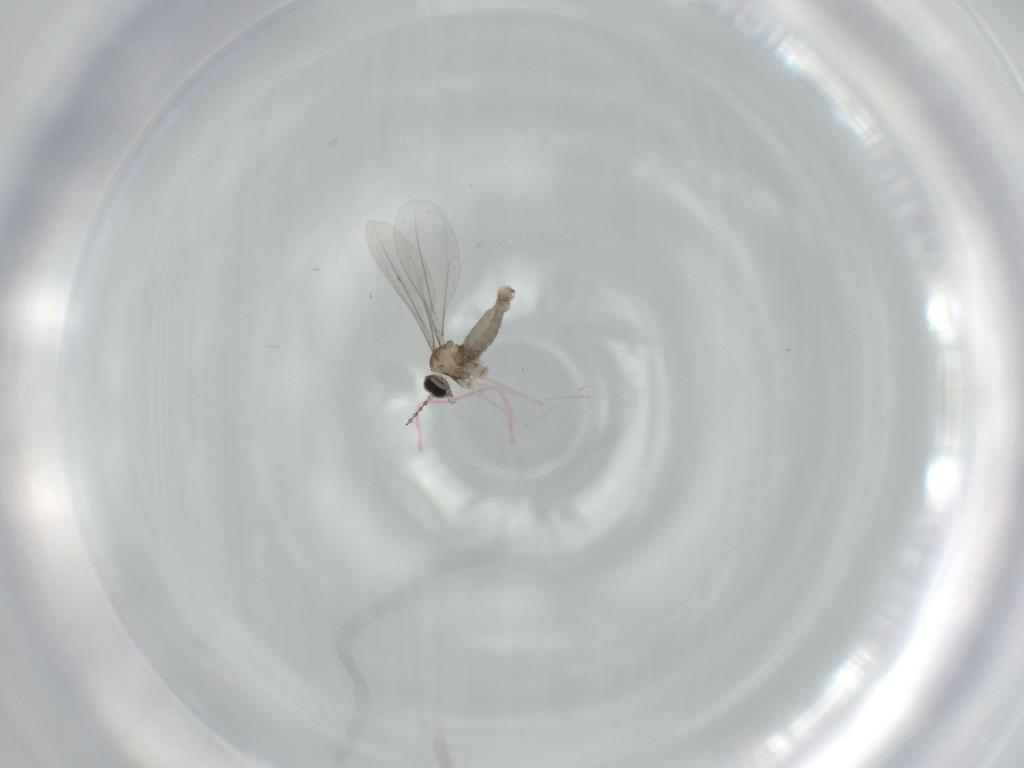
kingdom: Animalia
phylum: Arthropoda
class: Insecta
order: Diptera
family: Cecidomyiidae
